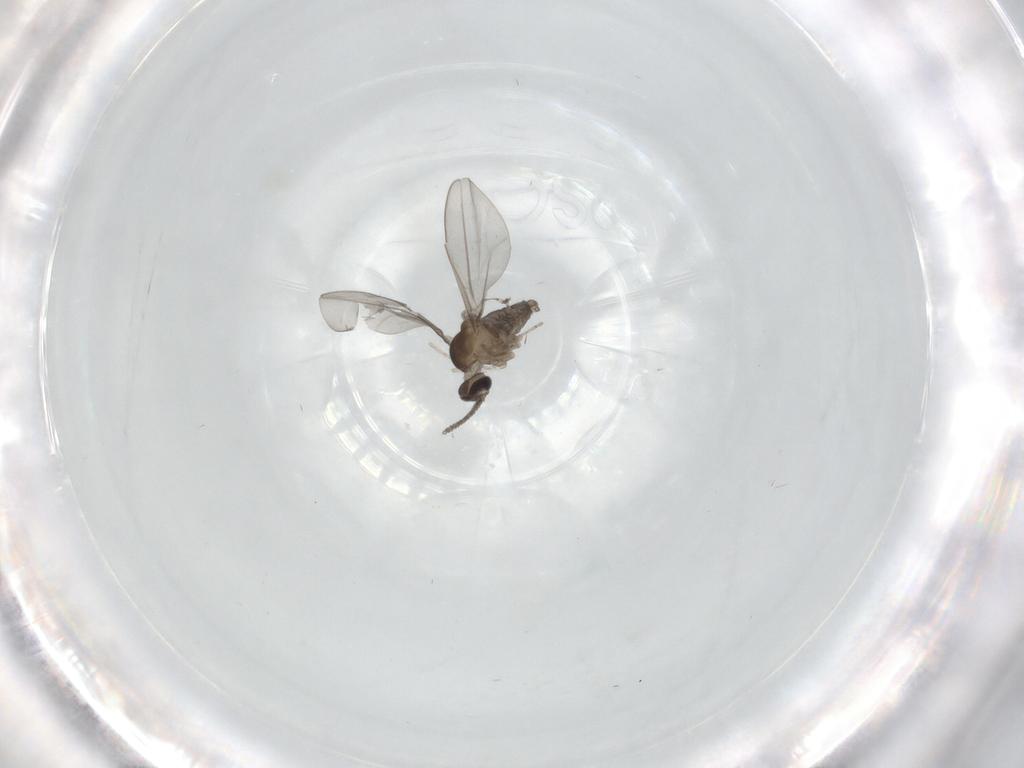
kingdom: Animalia
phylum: Arthropoda
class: Insecta
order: Diptera
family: Cecidomyiidae
